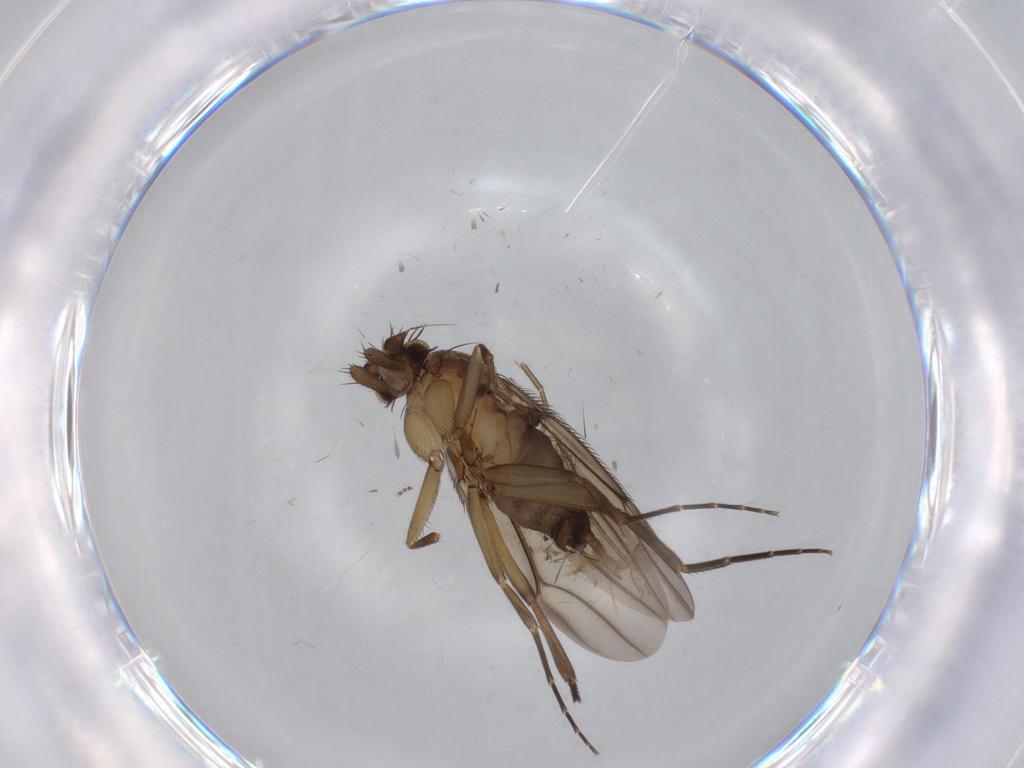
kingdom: Animalia
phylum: Arthropoda
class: Insecta
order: Diptera
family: Phoridae
